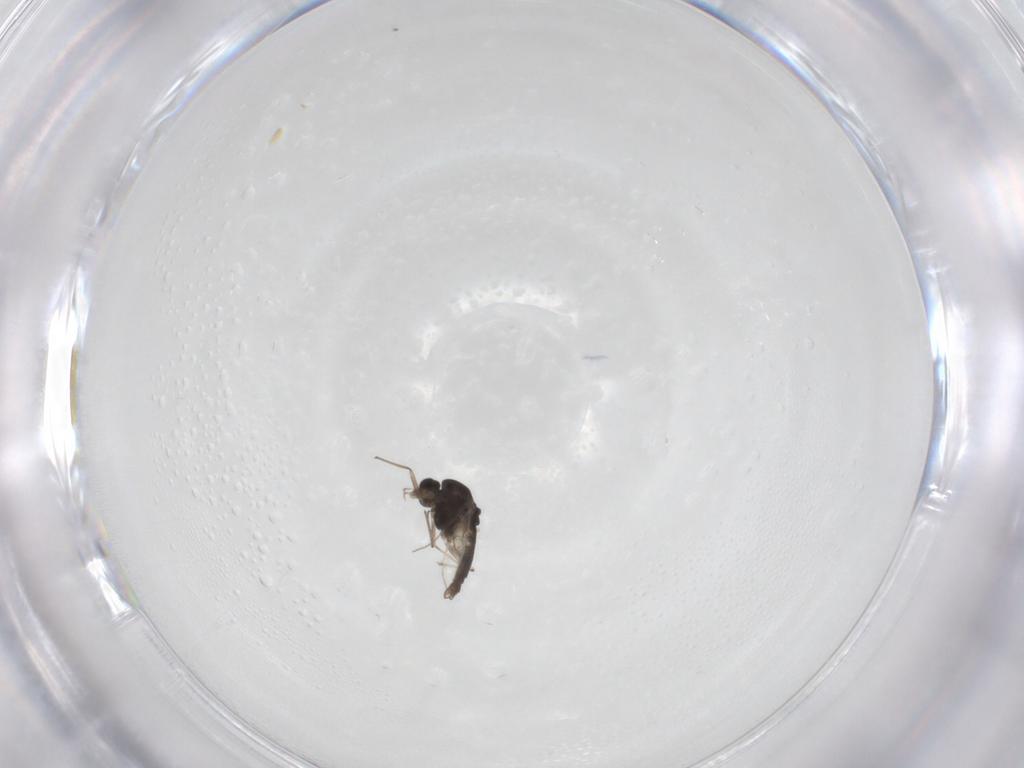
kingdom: Animalia
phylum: Arthropoda
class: Insecta
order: Diptera
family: Chironomidae
